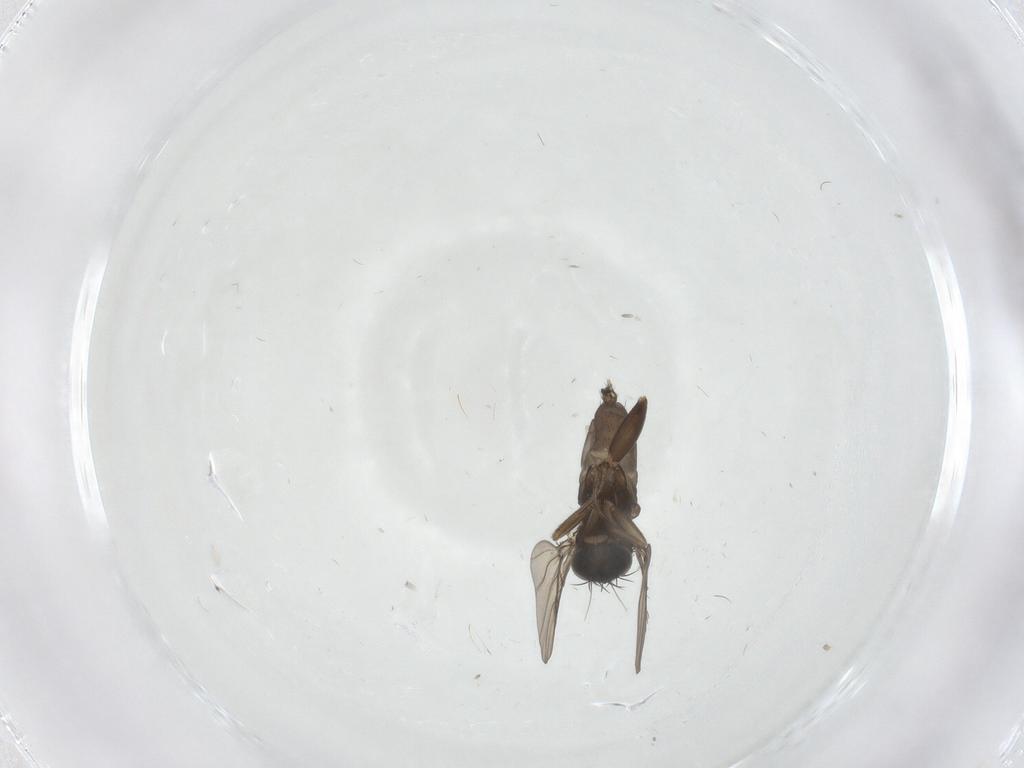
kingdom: Animalia
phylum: Arthropoda
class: Insecta
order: Diptera
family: Phoridae
